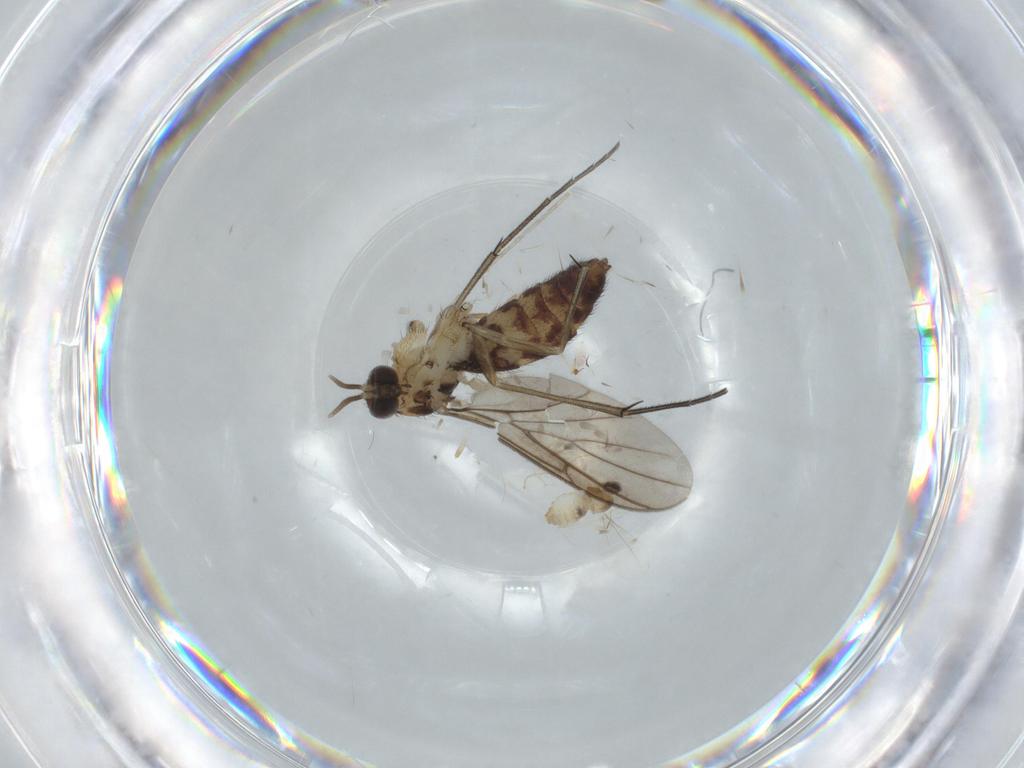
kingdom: Animalia
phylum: Arthropoda
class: Insecta
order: Diptera
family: Keroplatidae
